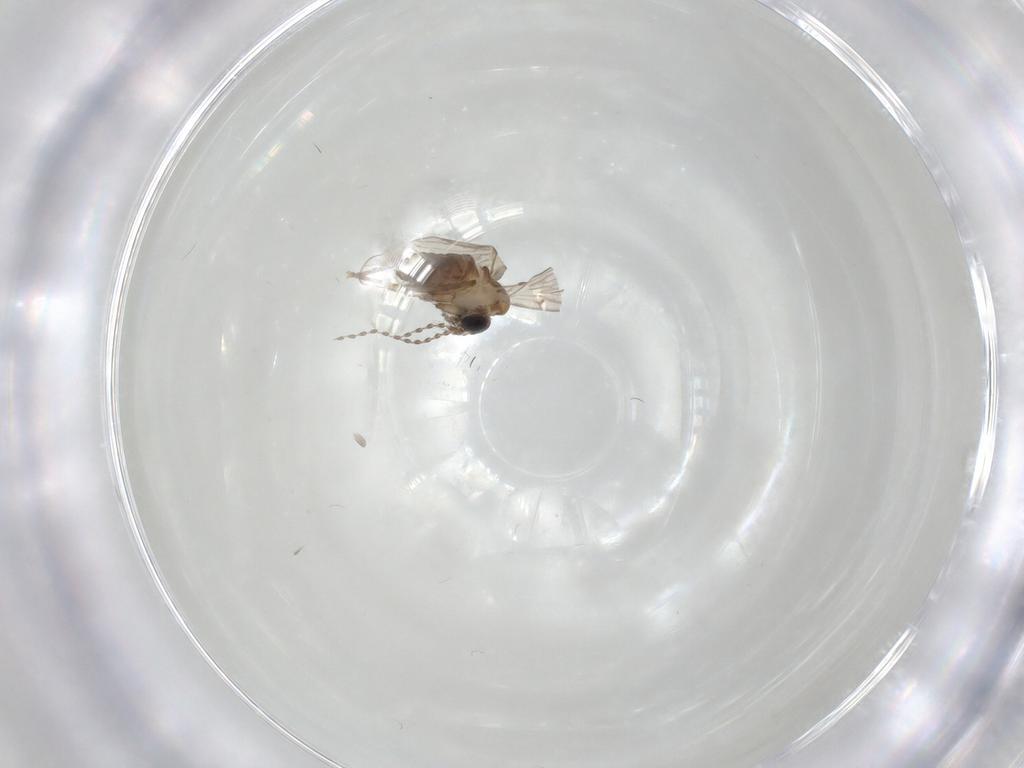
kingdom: Animalia
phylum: Arthropoda
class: Insecta
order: Diptera
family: Psychodidae
